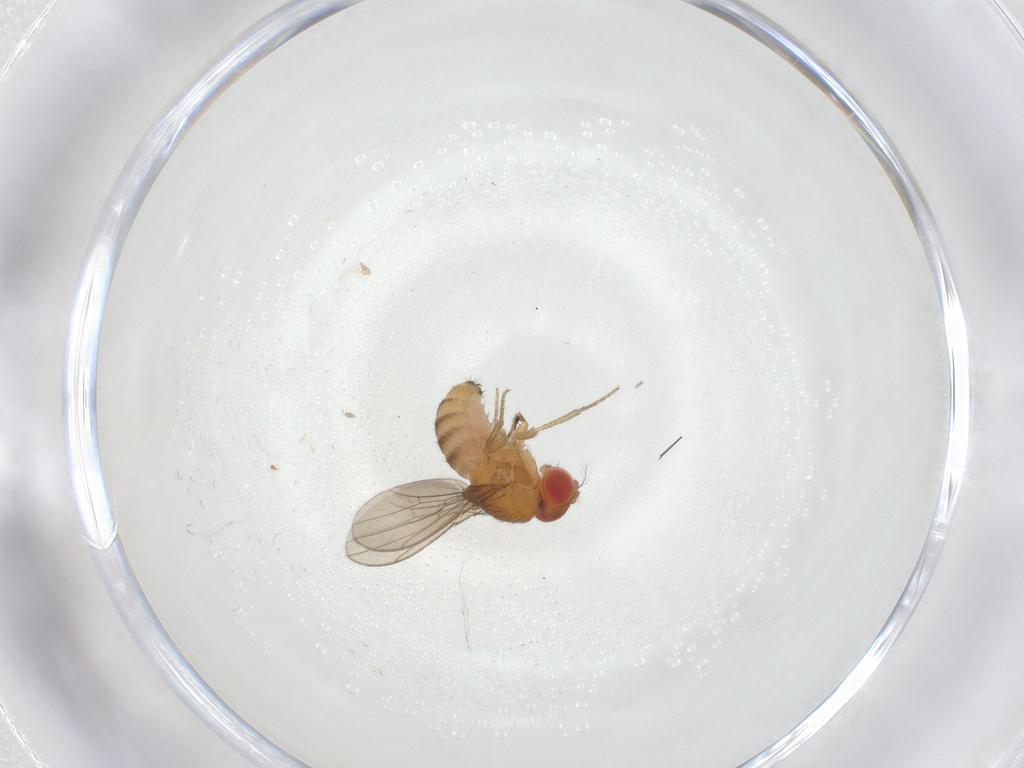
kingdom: Animalia
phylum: Arthropoda
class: Insecta
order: Diptera
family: Drosophilidae
